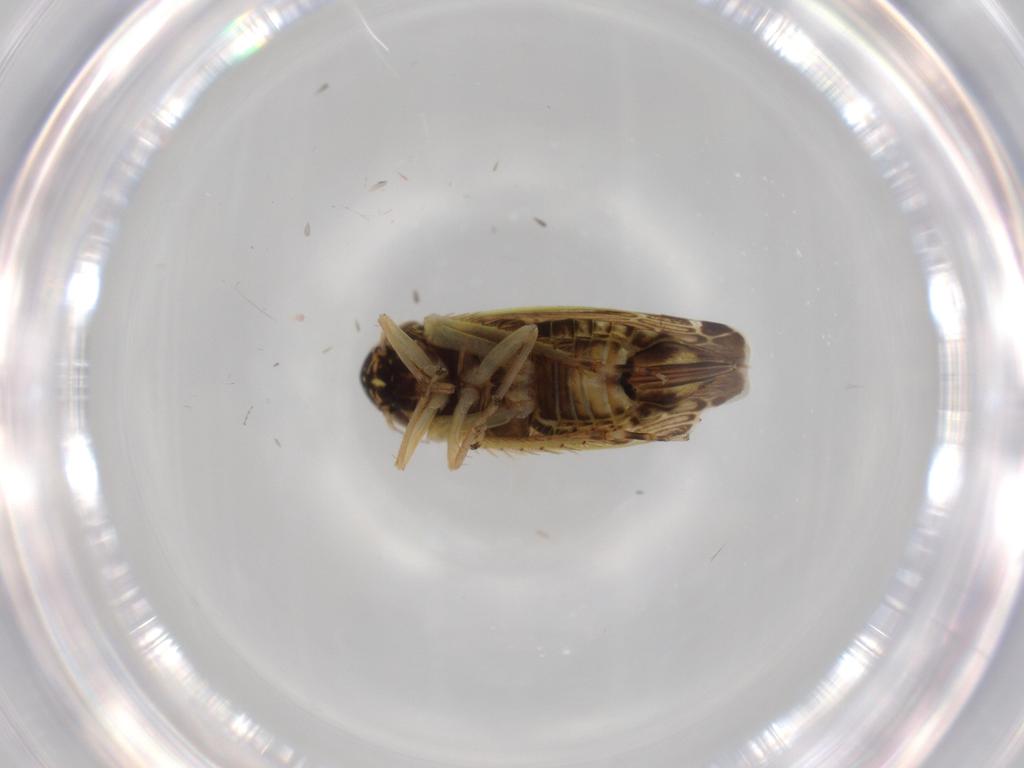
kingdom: Animalia
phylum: Arthropoda
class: Insecta
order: Hemiptera
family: Cicadellidae
